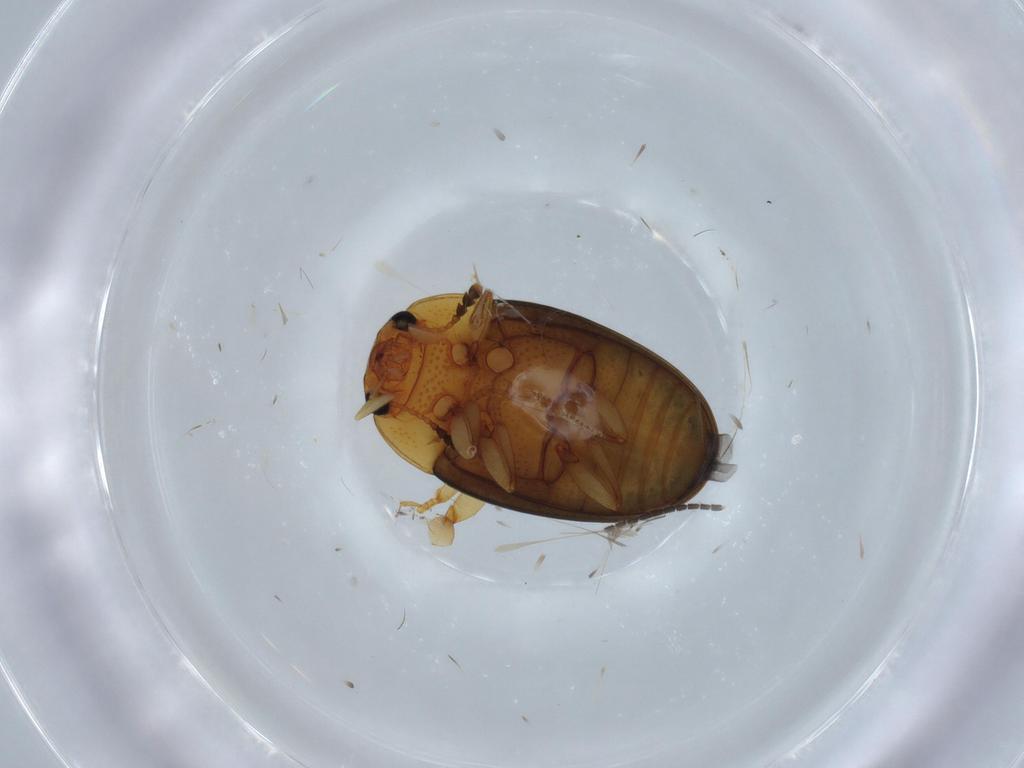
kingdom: Animalia
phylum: Arthropoda
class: Insecta
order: Coleoptera
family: Erotylidae
